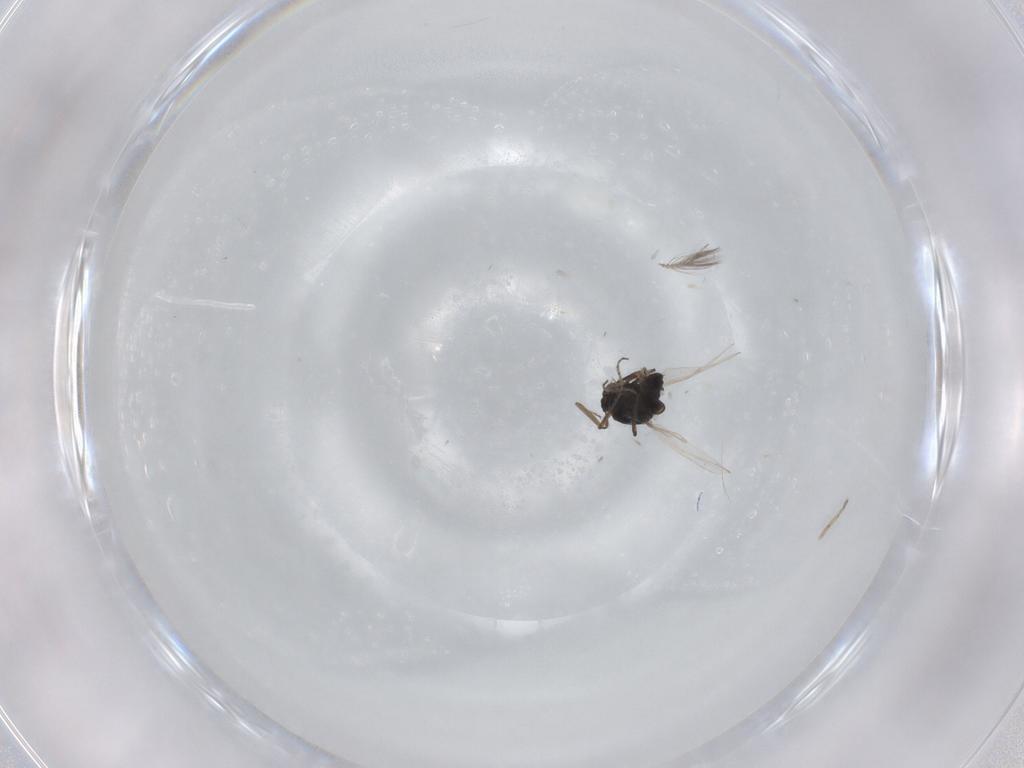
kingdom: Animalia
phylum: Arthropoda
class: Insecta
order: Diptera
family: Ceratopogonidae
